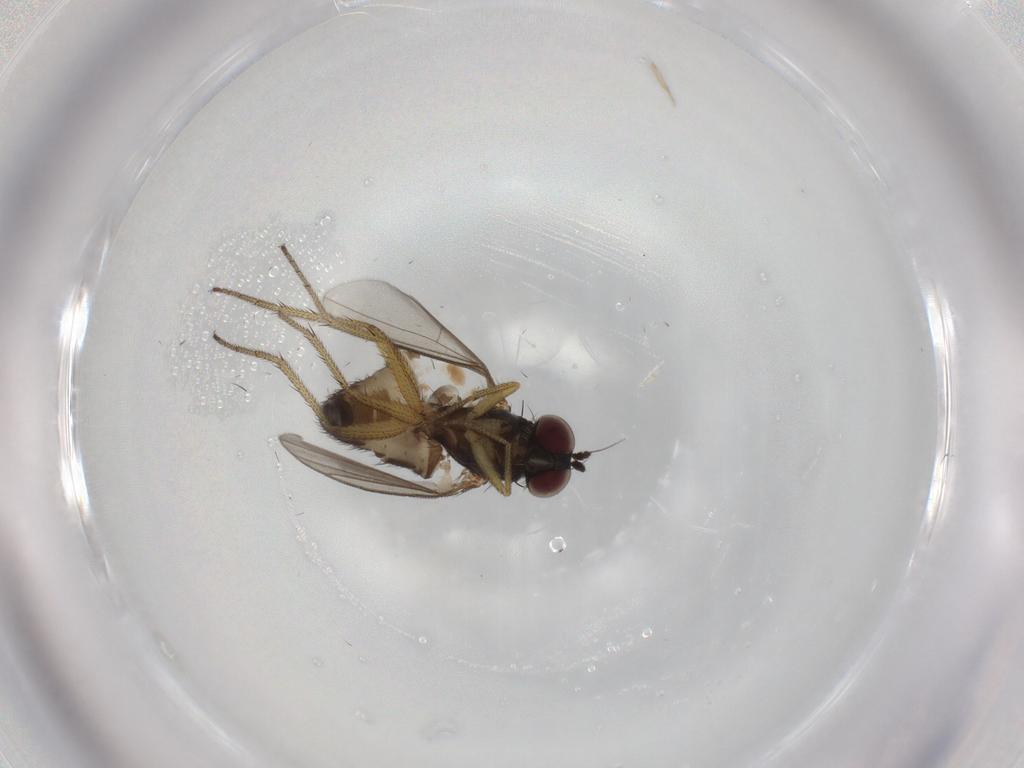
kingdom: Animalia
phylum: Arthropoda
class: Insecta
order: Diptera
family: Dolichopodidae
